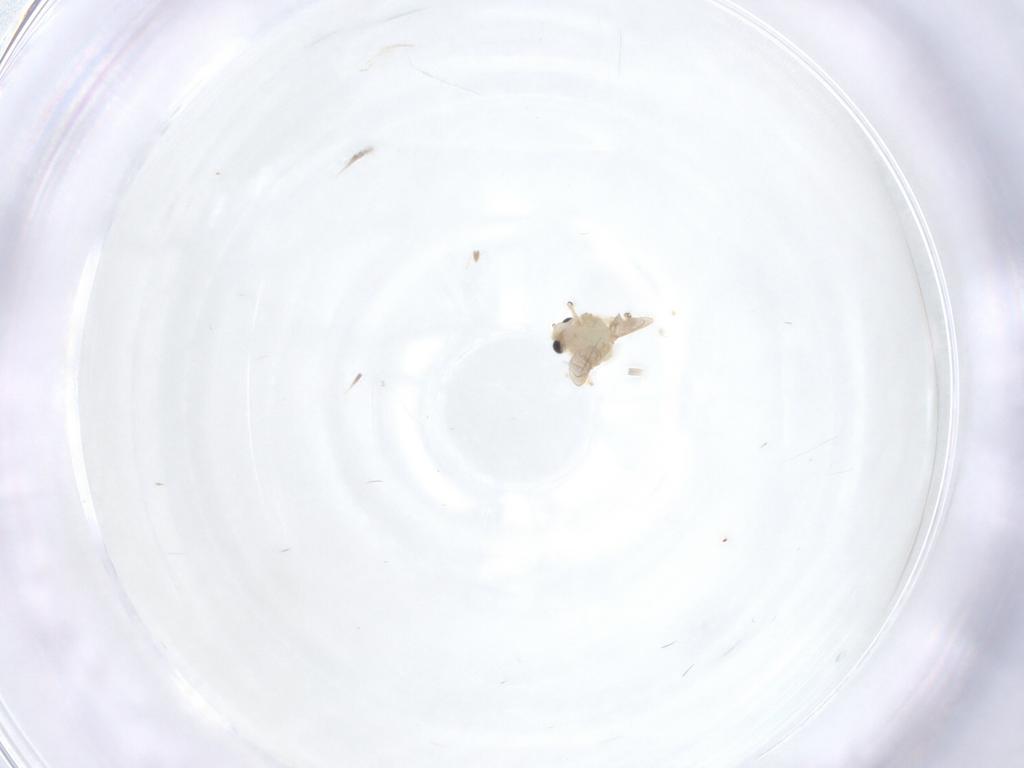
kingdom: Animalia
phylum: Arthropoda
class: Insecta
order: Diptera
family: Chironomidae
